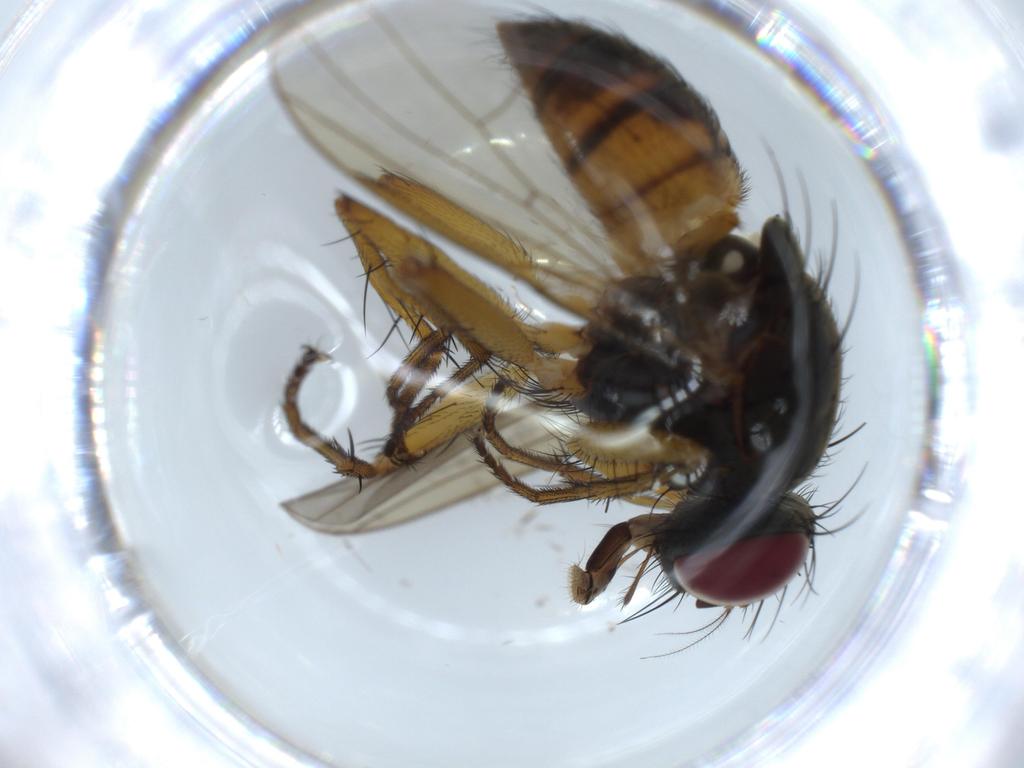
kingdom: Animalia
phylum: Arthropoda
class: Insecta
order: Diptera
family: Muscidae
